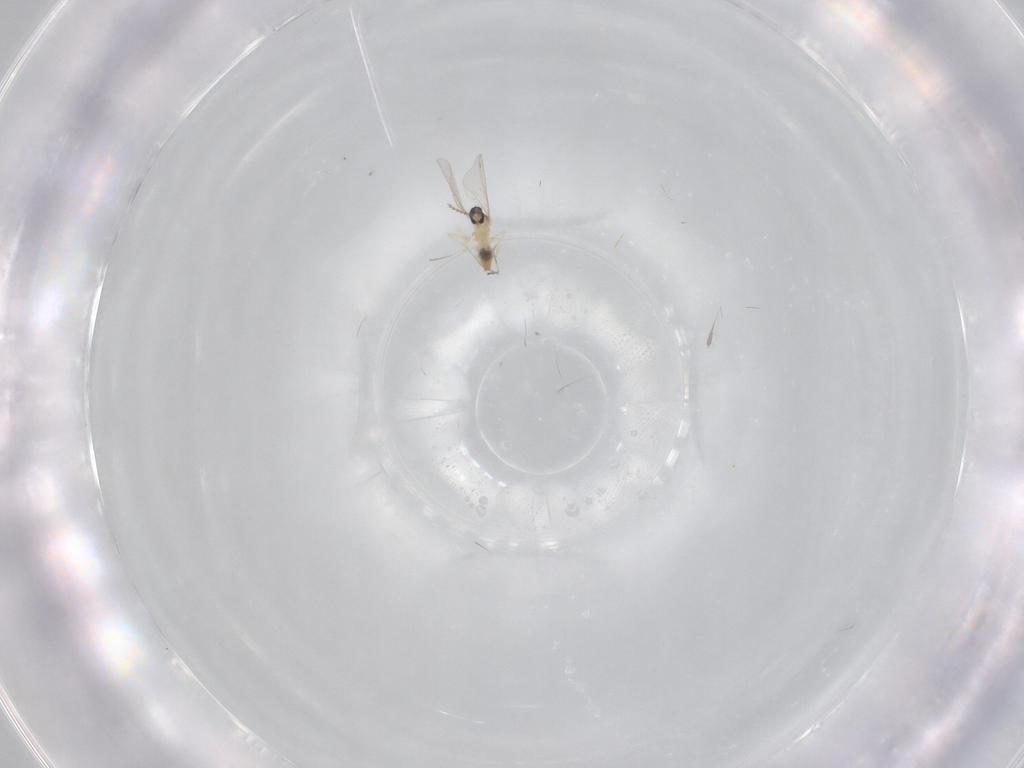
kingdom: Animalia
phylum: Arthropoda
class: Insecta
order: Diptera
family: Cecidomyiidae
